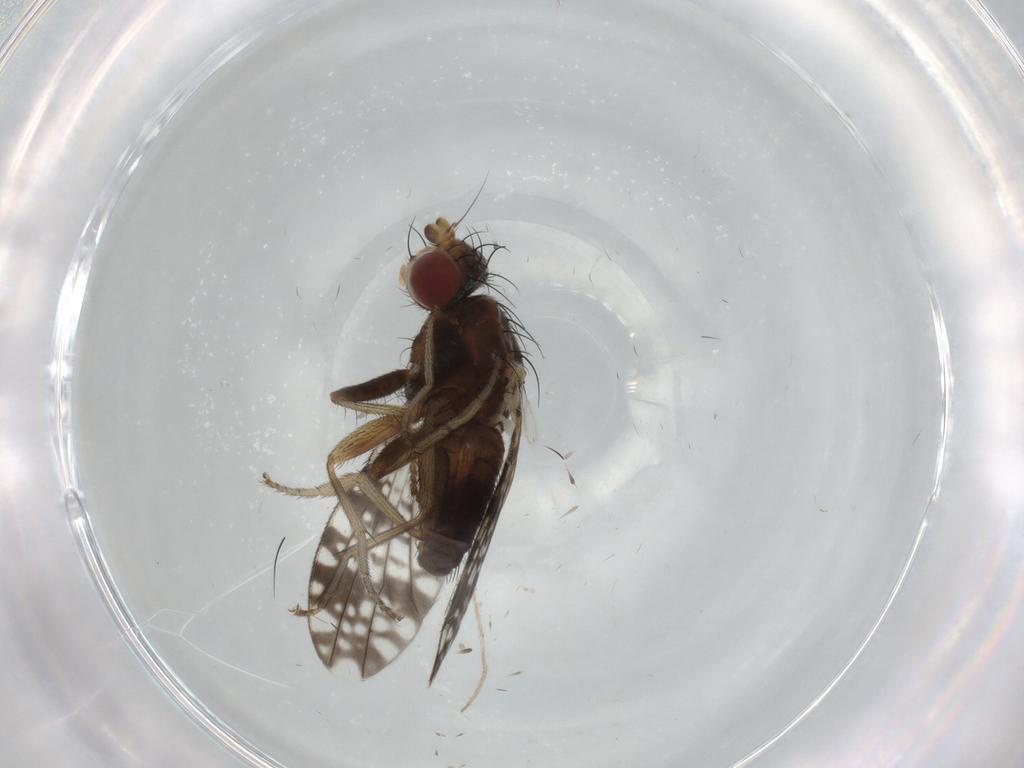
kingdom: Animalia
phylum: Arthropoda
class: Insecta
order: Diptera
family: Tephritidae
